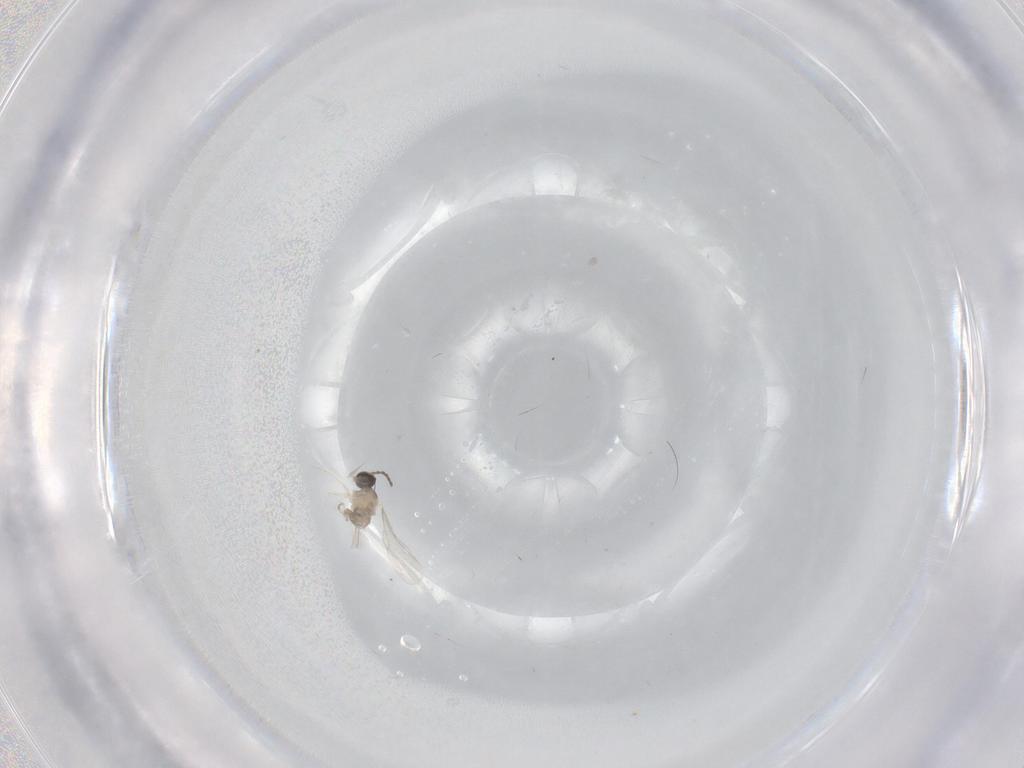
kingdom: Animalia
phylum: Arthropoda
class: Insecta
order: Diptera
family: Cecidomyiidae
